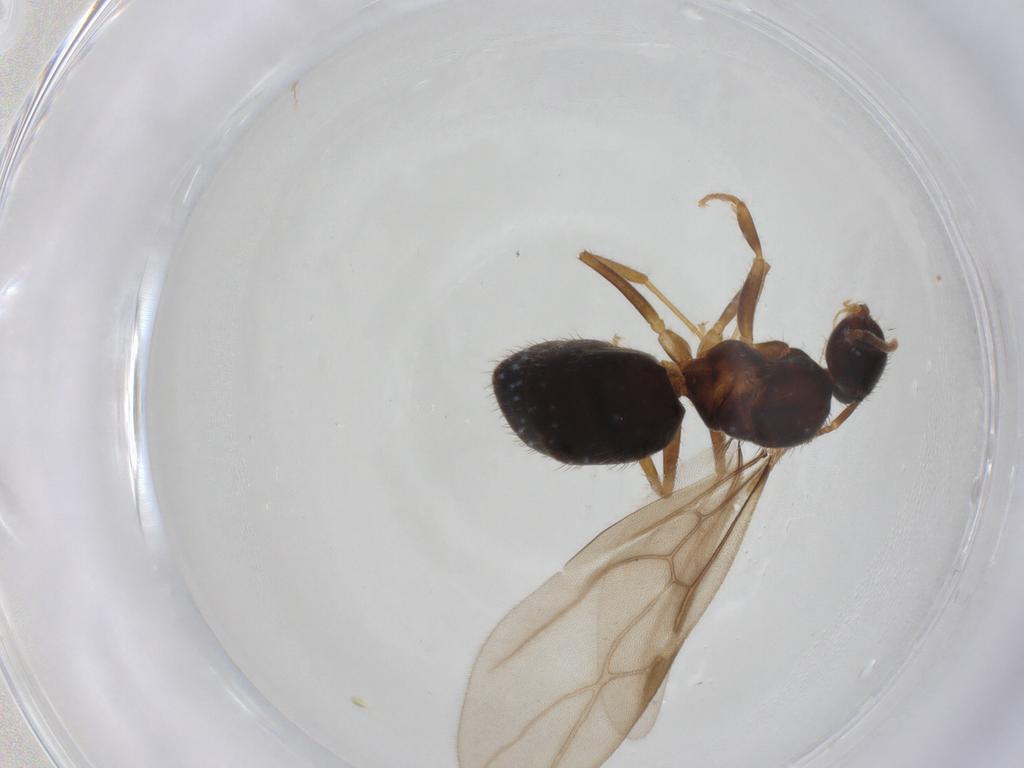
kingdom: Animalia
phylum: Arthropoda
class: Insecta
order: Hymenoptera
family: Formicidae
